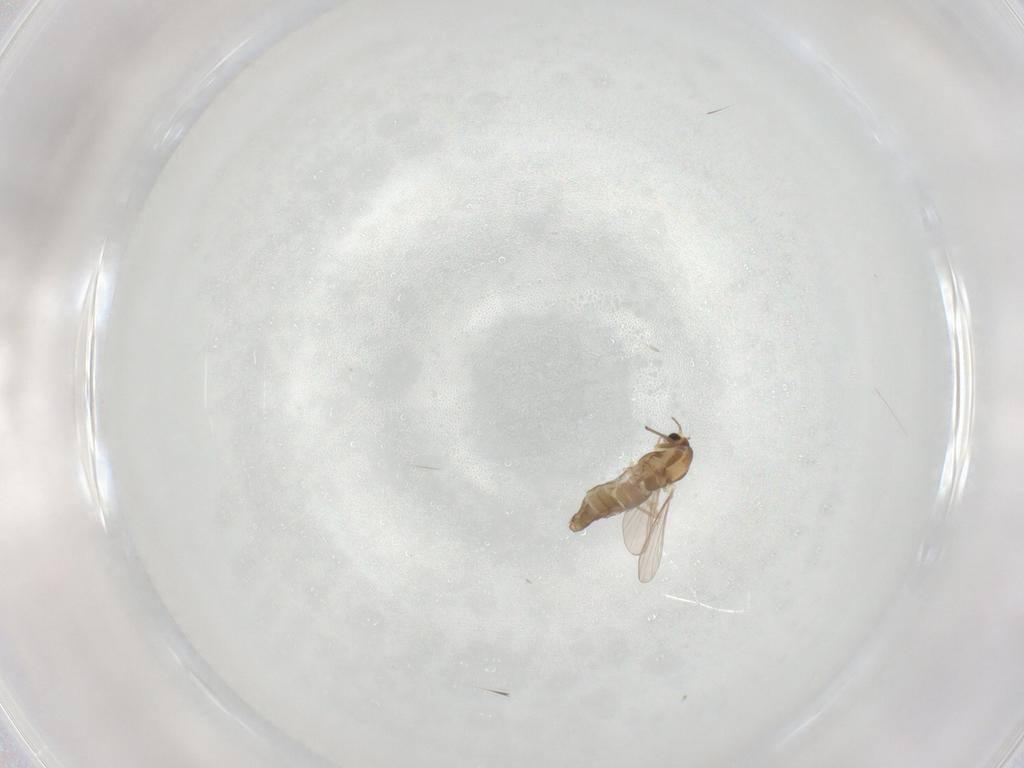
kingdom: Animalia
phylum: Arthropoda
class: Insecta
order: Diptera
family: Chironomidae
